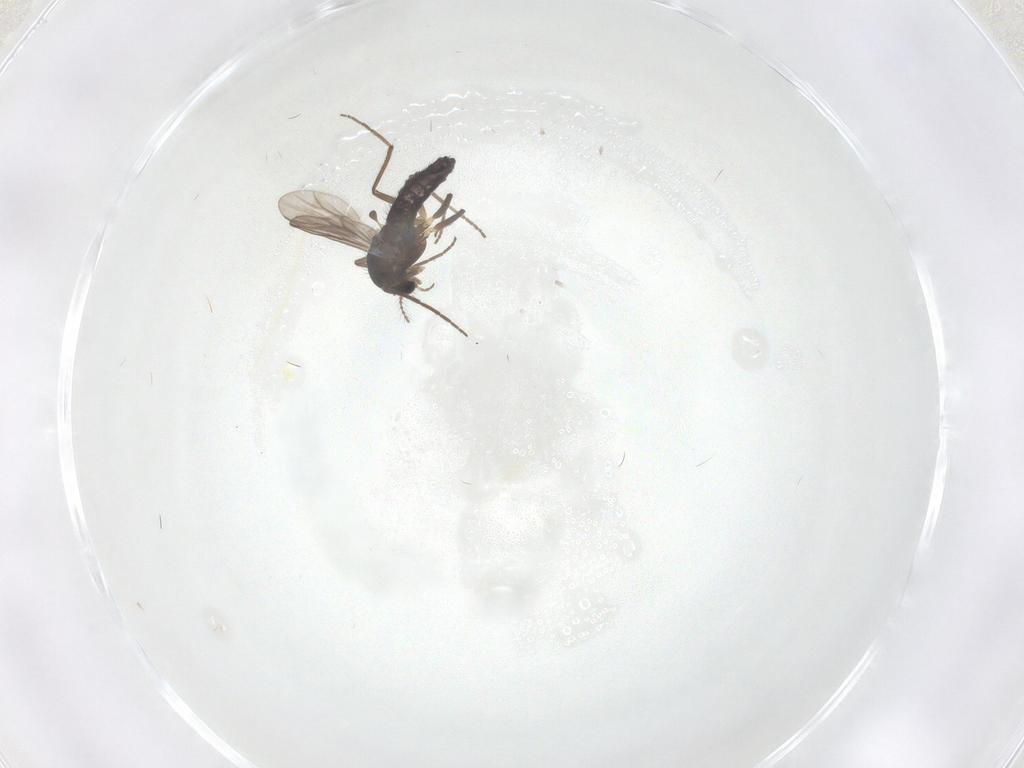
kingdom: Animalia
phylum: Arthropoda
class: Insecta
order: Diptera
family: Chironomidae
